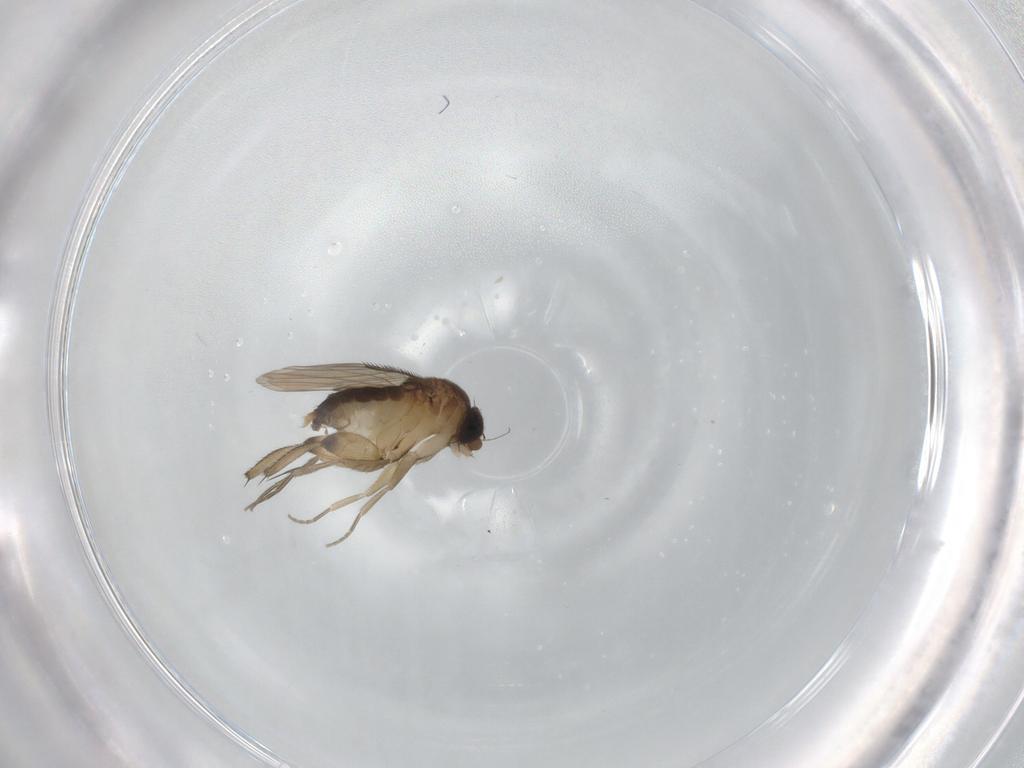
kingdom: Animalia
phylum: Arthropoda
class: Insecta
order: Diptera
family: Phoridae
